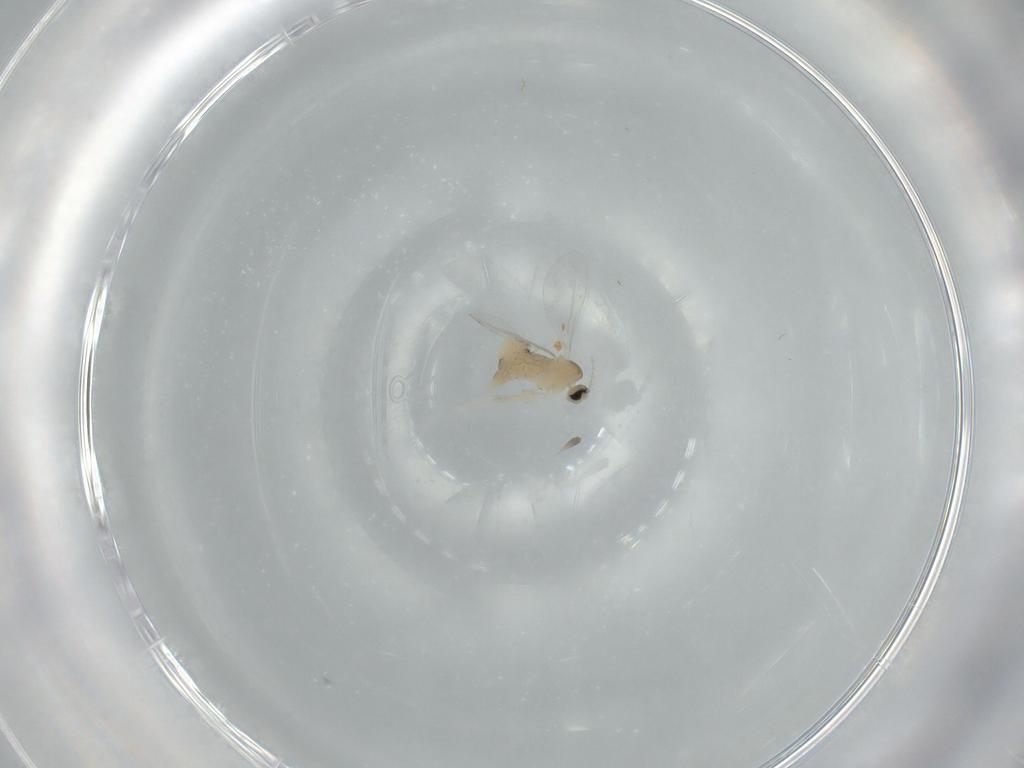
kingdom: Animalia
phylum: Arthropoda
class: Insecta
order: Diptera
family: Cecidomyiidae
